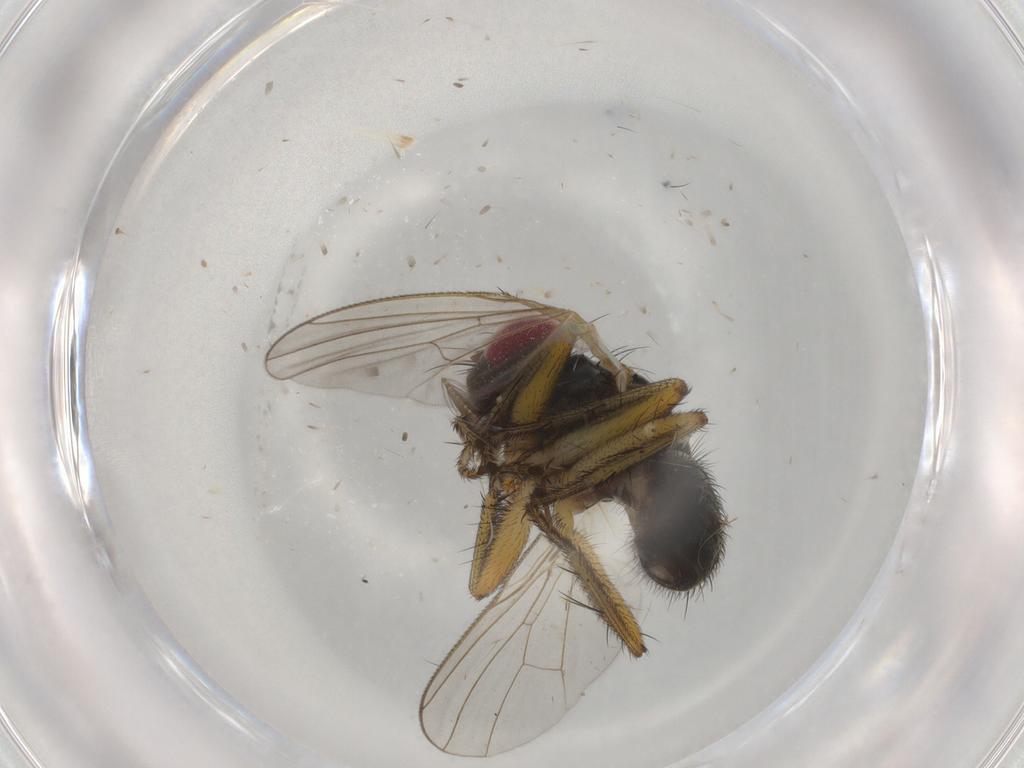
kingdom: Animalia
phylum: Arthropoda
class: Insecta
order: Diptera
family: Muscidae
